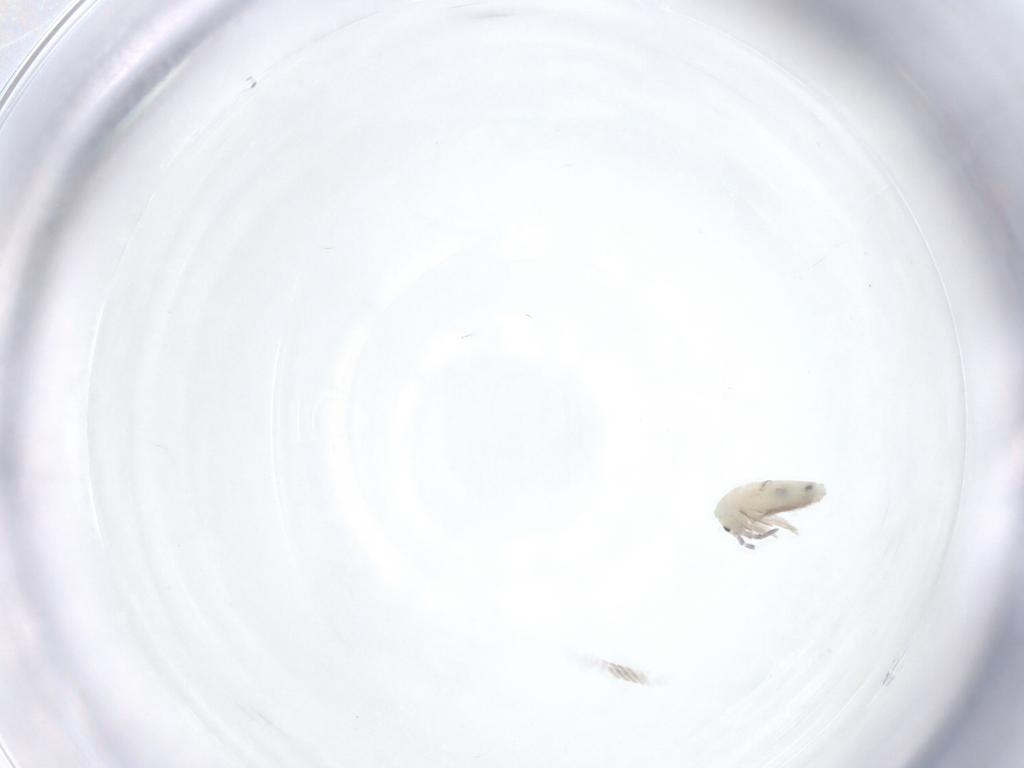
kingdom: Animalia
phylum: Arthropoda
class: Collembola
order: Entomobryomorpha
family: Entomobryidae
